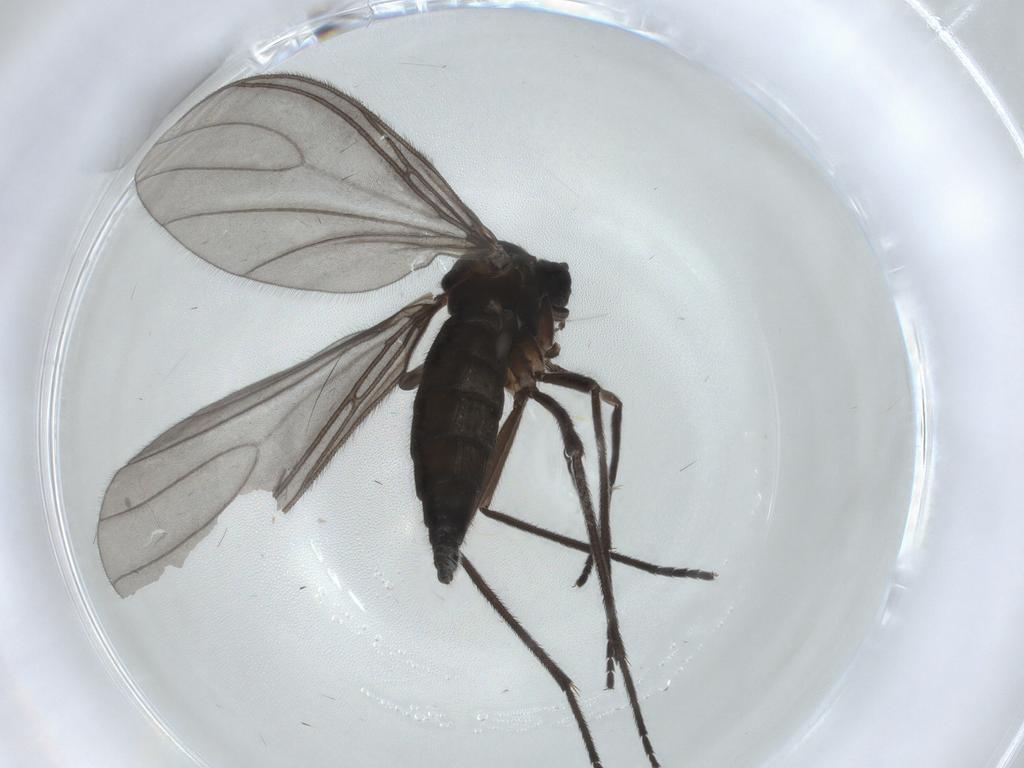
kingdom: Animalia
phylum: Arthropoda
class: Insecta
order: Diptera
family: Sciaridae
